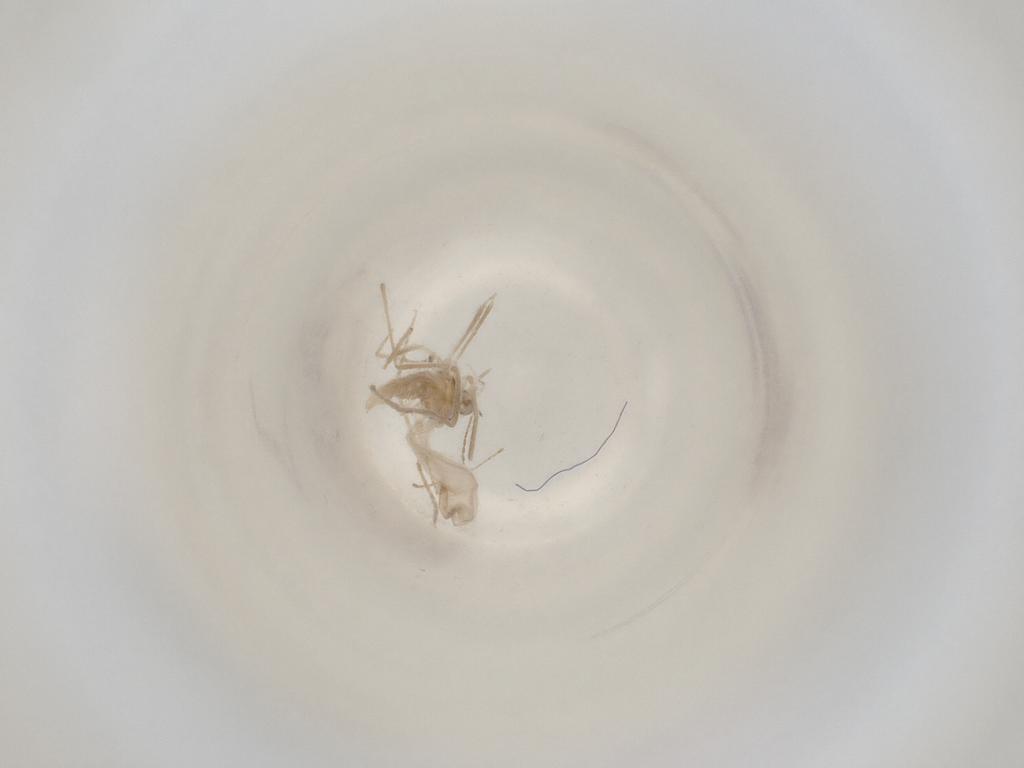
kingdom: Animalia
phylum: Arthropoda
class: Insecta
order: Diptera
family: Cecidomyiidae
